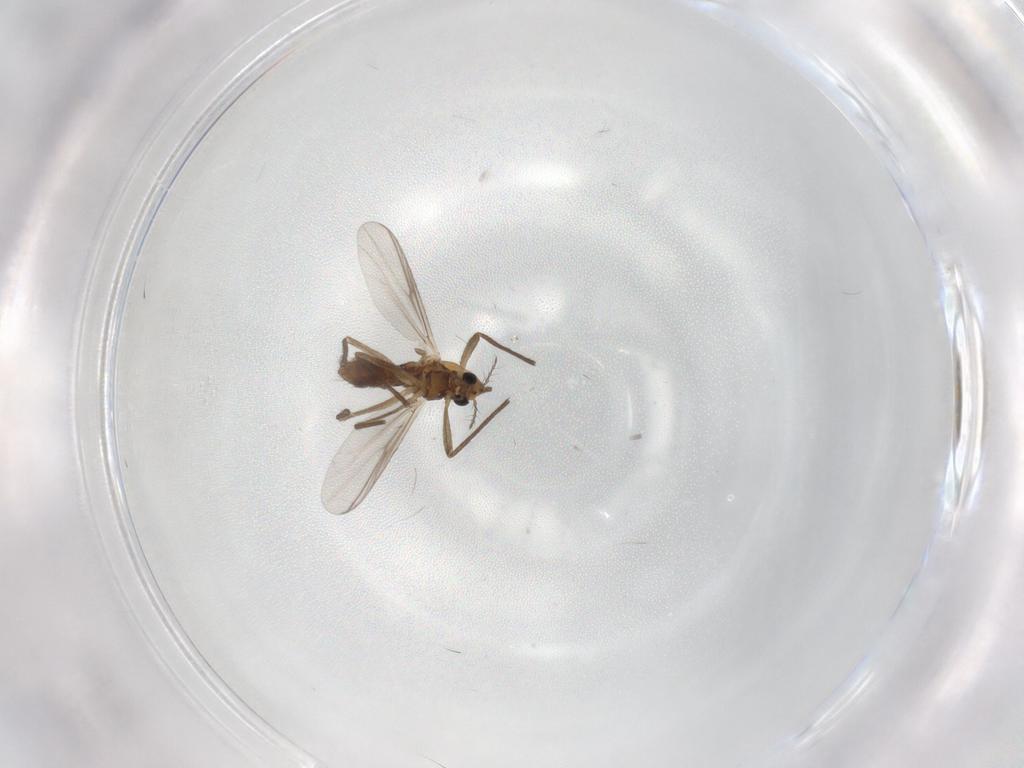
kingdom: Animalia
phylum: Arthropoda
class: Insecta
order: Diptera
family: Chironomidae
